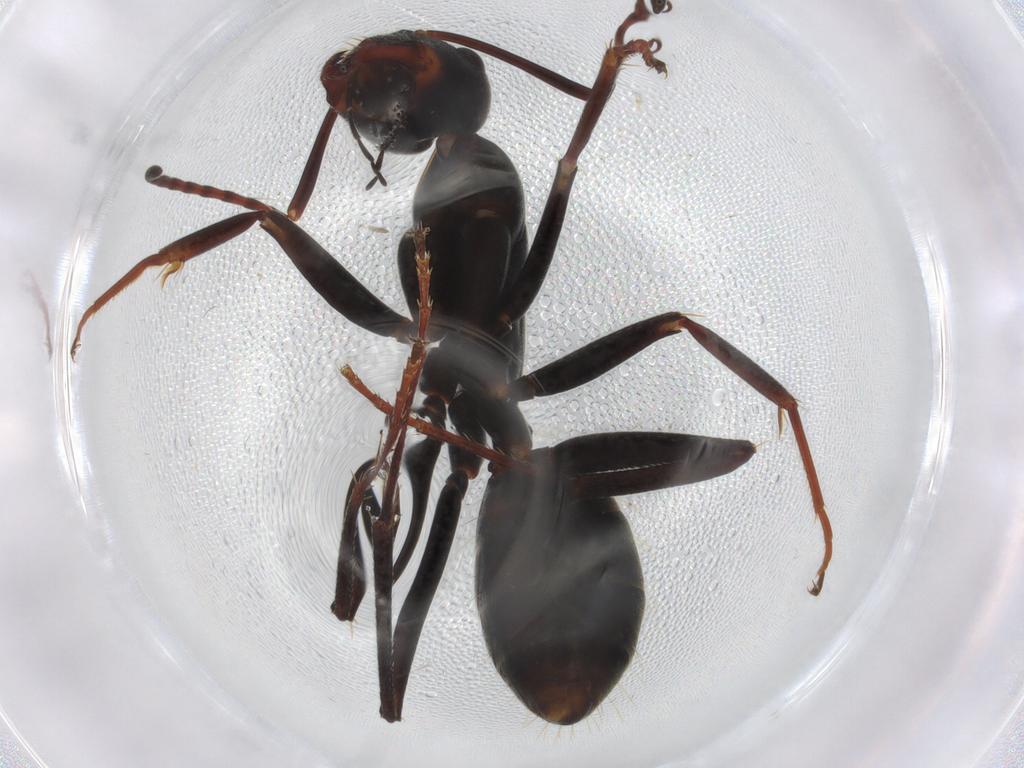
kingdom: Animalia
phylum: Arthropoda
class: Insecta
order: Hymenoptera
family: Formicidae
